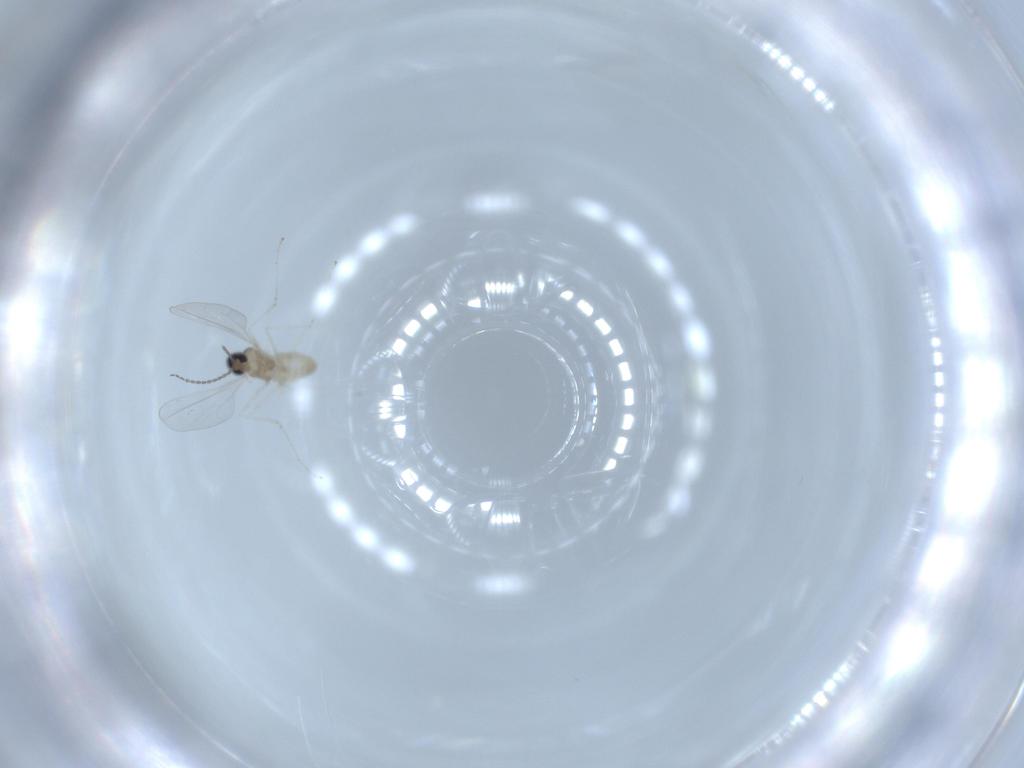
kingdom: Animalia
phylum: Arthropoda
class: Insecta
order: Diptera
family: Cecidomyiidae
